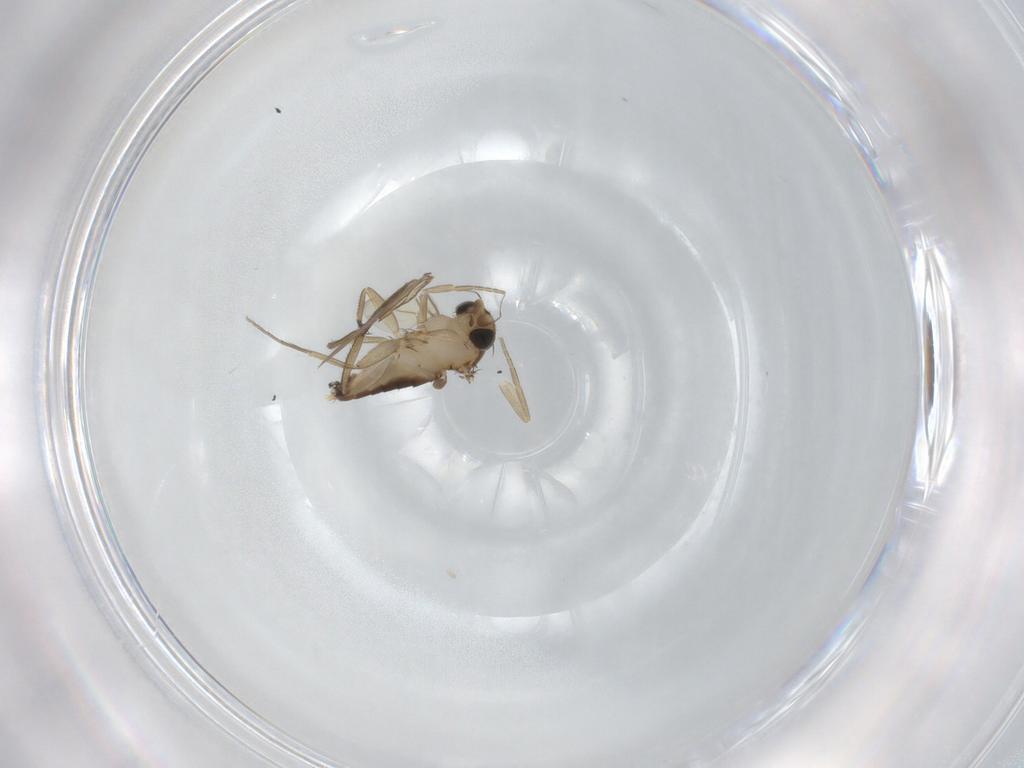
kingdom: Animalia
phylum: Arthropoda
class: Insecta
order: Diptera
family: Phoridae
